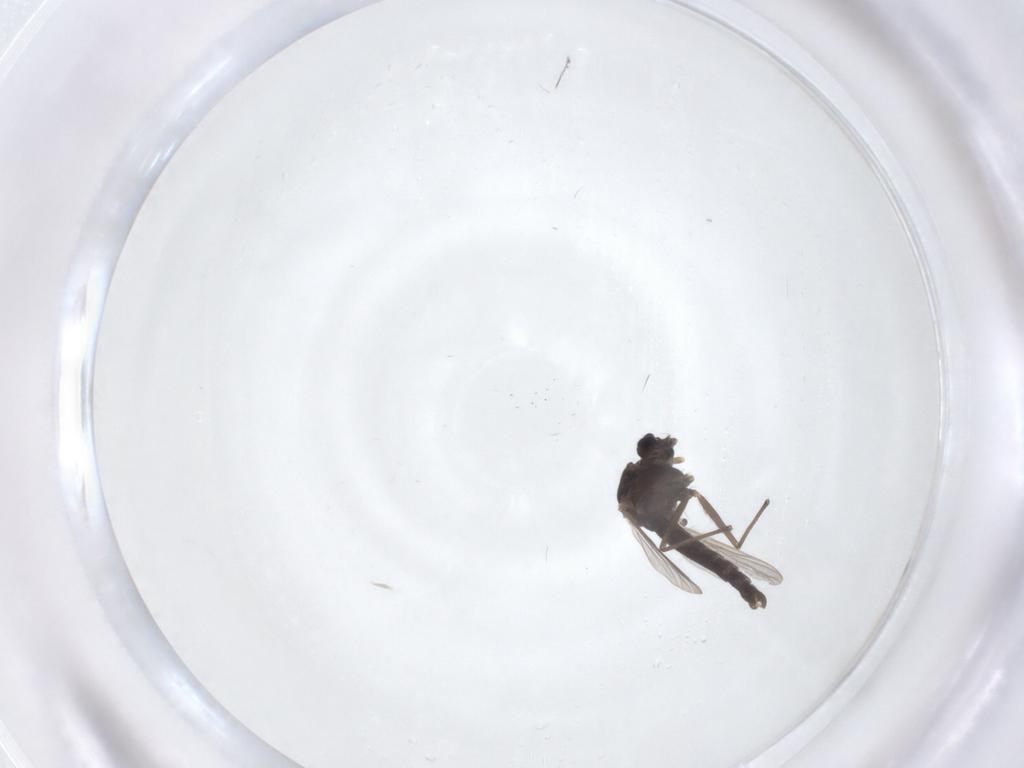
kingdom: Animalia
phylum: Arthropoda
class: Insecta
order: Diptera
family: Chironomidae
